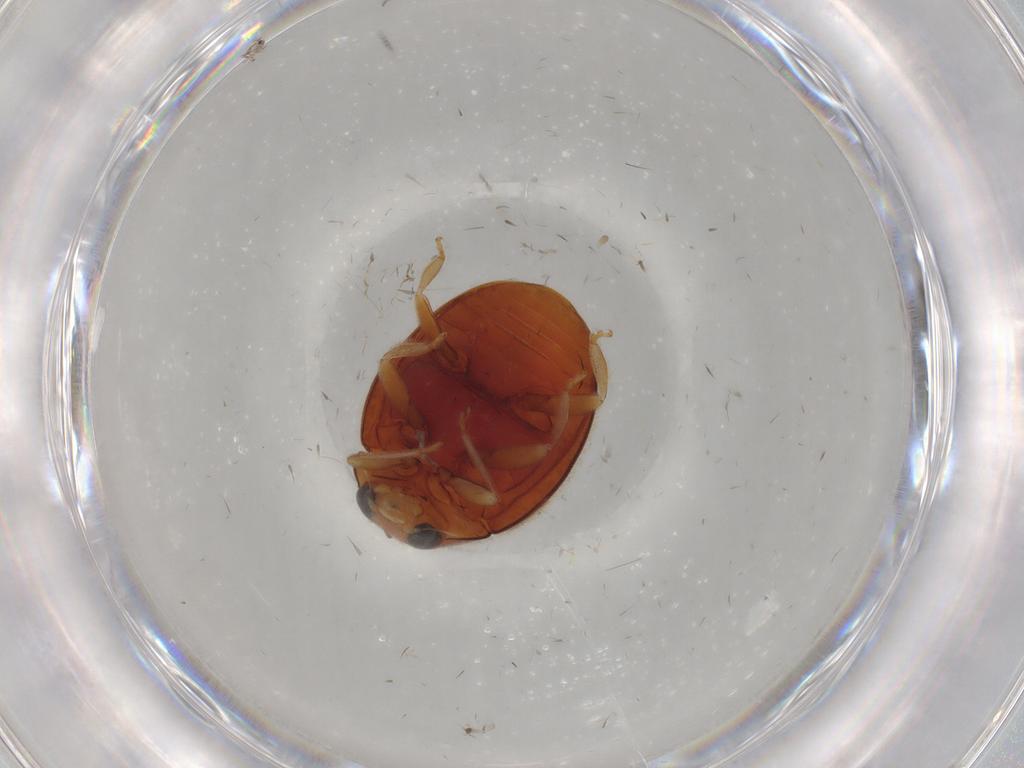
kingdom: Animalia
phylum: Arthropoda
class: Insecta
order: Coleoptera
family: Coccinellidae
